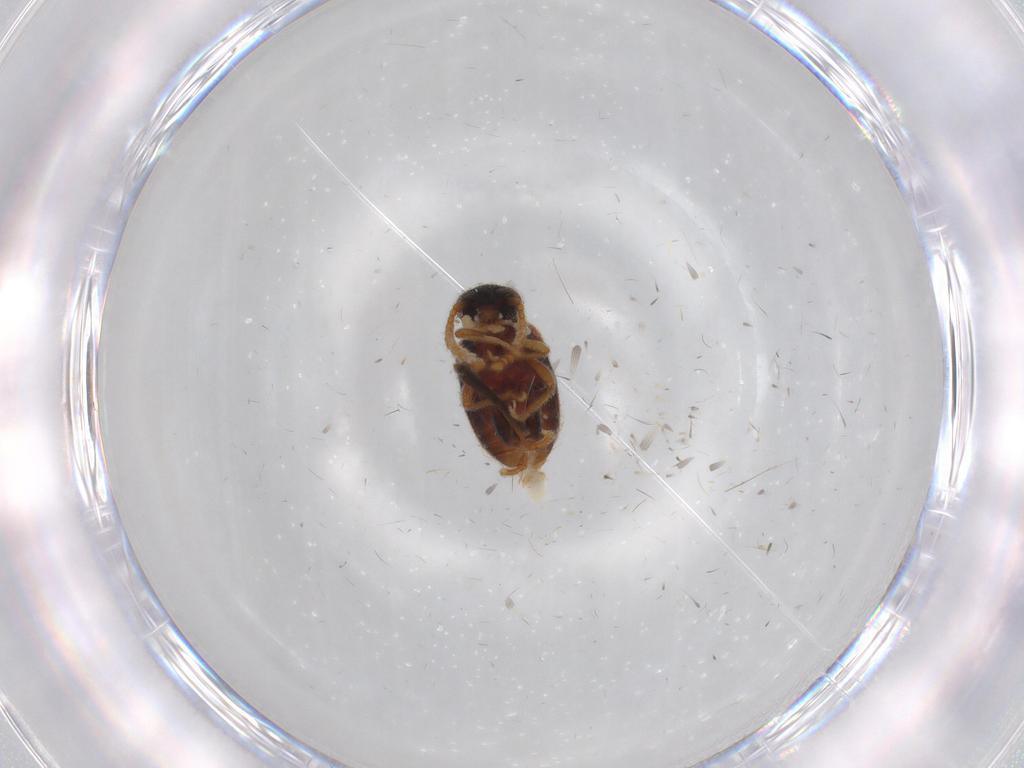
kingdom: Animalia
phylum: Arthropoda
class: Insecta
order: Coleoptera
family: Aderidae
